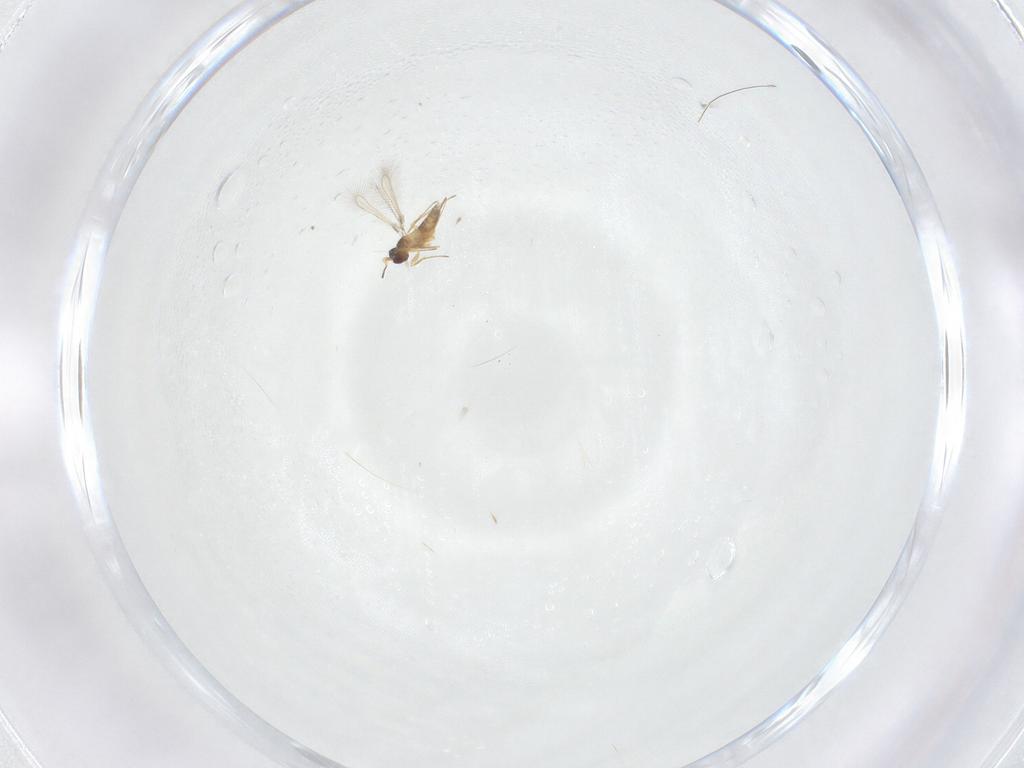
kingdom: Animalia
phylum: Arthropoda
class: Insecta
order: Hymenoptera
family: Mymaridae
